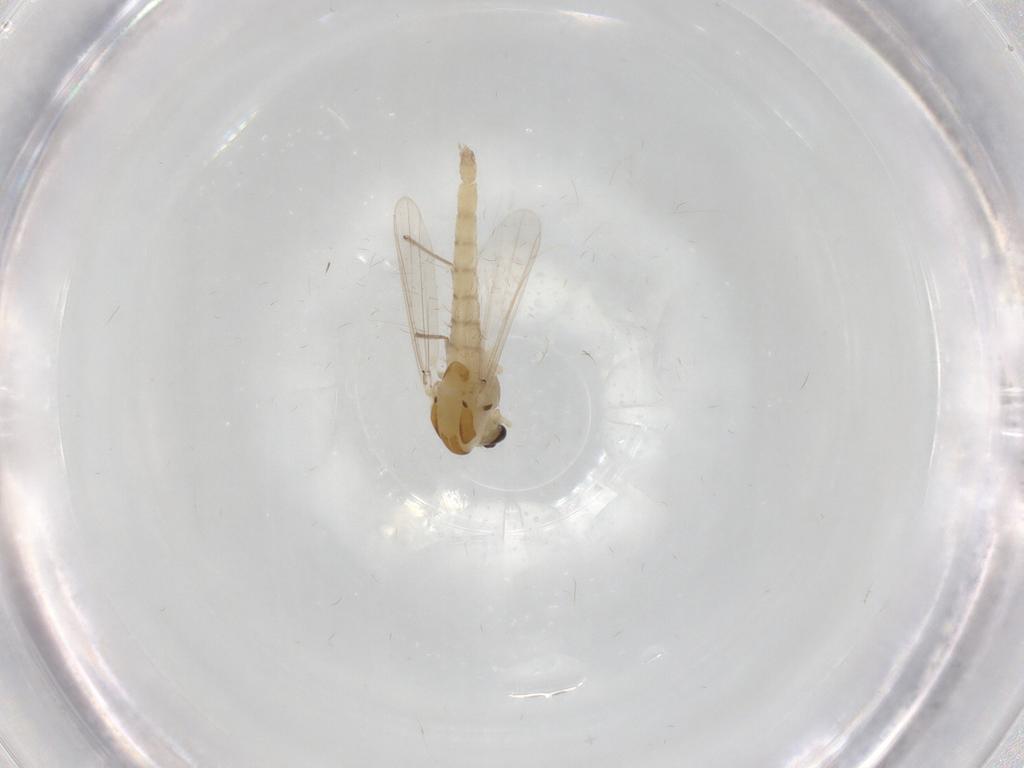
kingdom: Animalia
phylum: Arthropoda
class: Insecta
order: Diptera
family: Chironomidae
